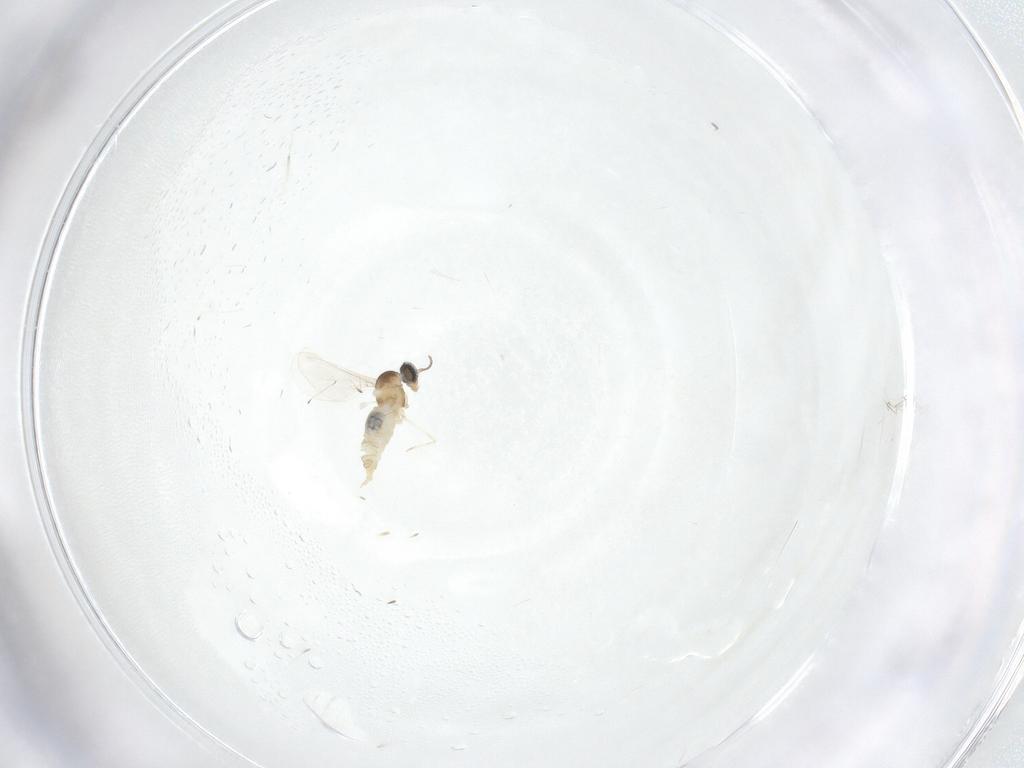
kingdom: Animalia
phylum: Arthropoda
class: Insecta
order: Diptera
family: Cecidomyiidae
